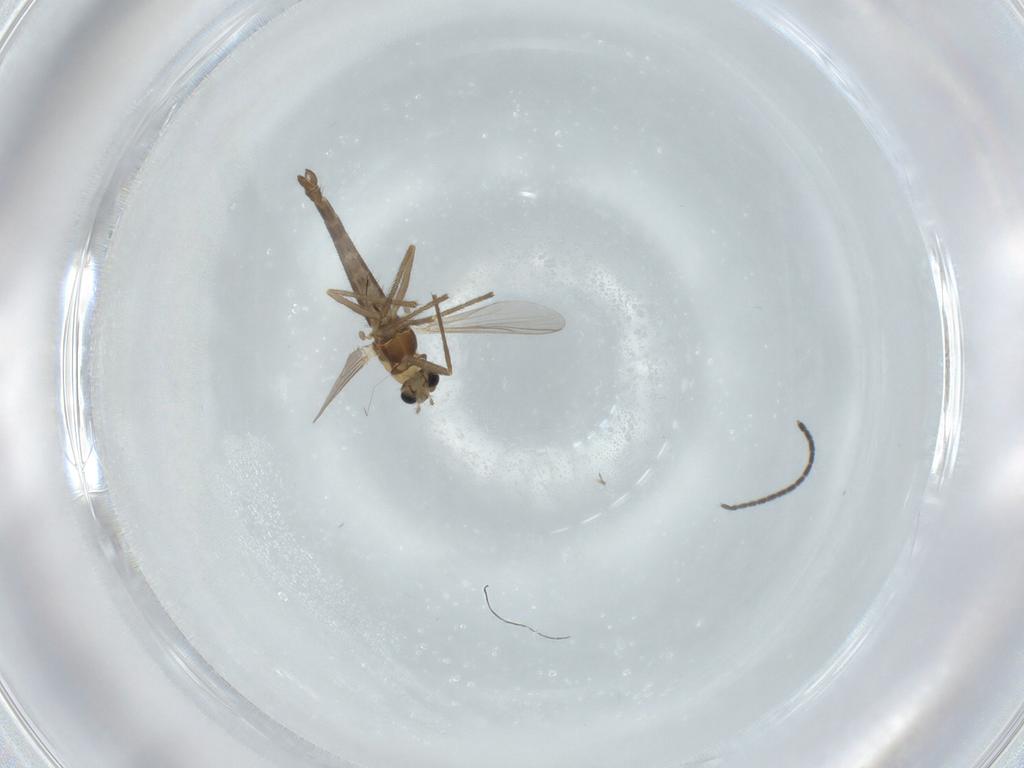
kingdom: Animalia
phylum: Arthropoda
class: Insecta
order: Diptera
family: Chironomidae
